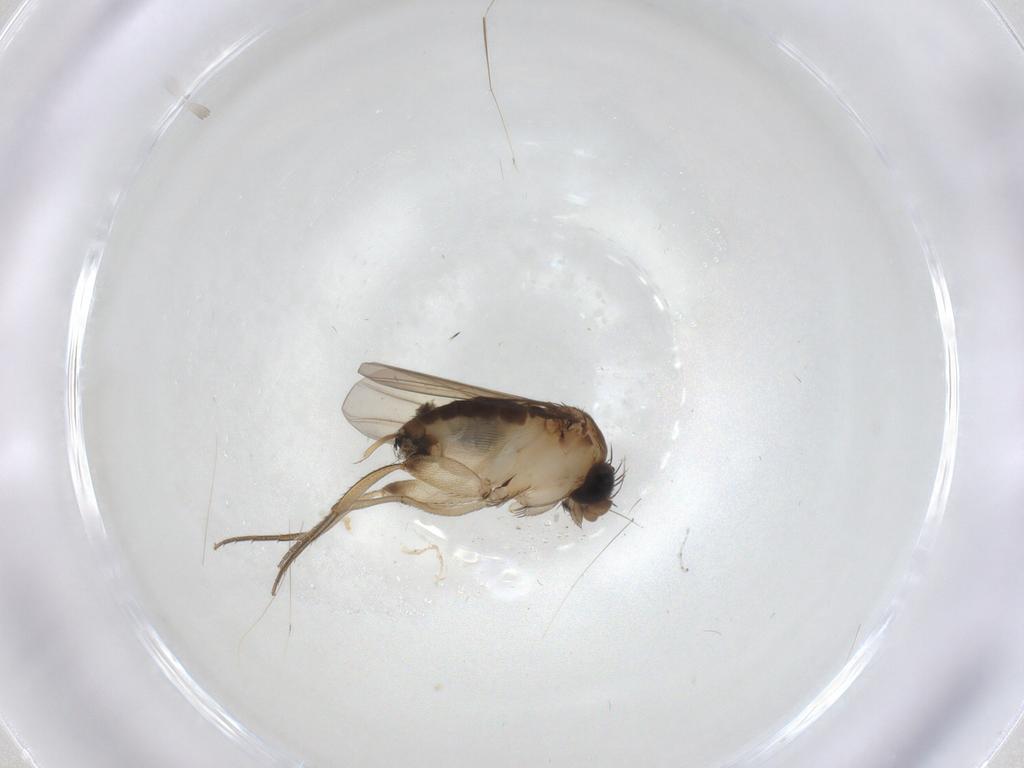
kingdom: Animalia
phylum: Arthropoda
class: Insecta
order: Diptera
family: Phoridae
